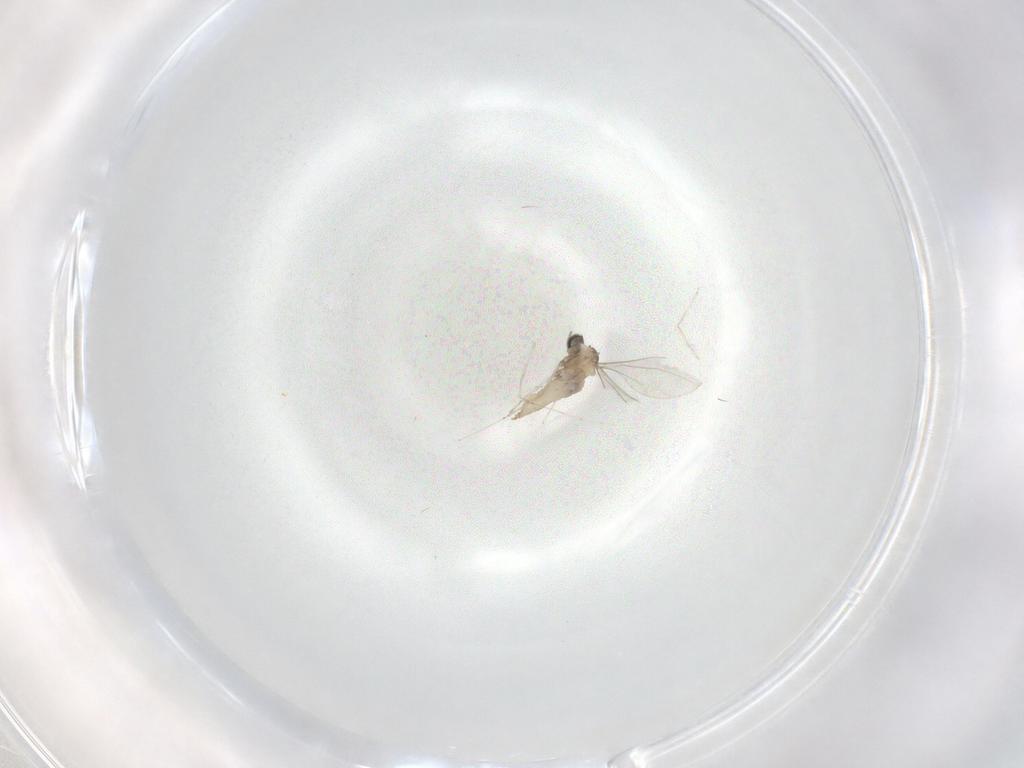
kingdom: Animalia
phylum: Arthropoda
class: Insecta
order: Diptera
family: Cecidomyiidae
